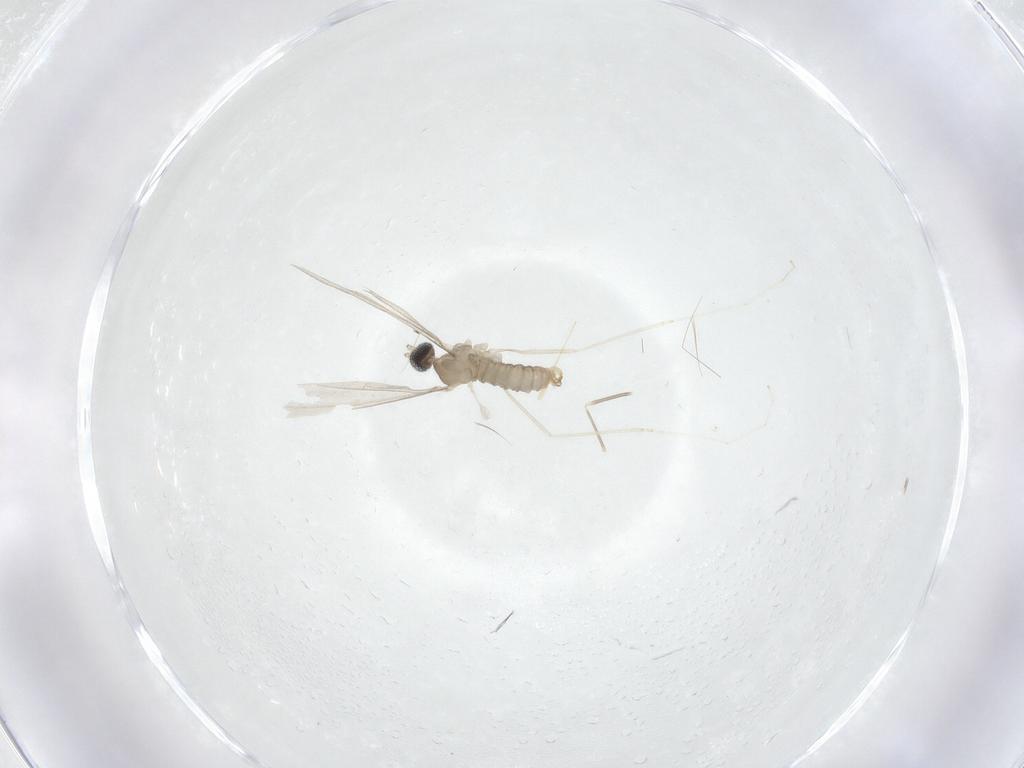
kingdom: Animalia
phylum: Arthropoda
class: Insecta
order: Diptera
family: Cecidomyiidae
